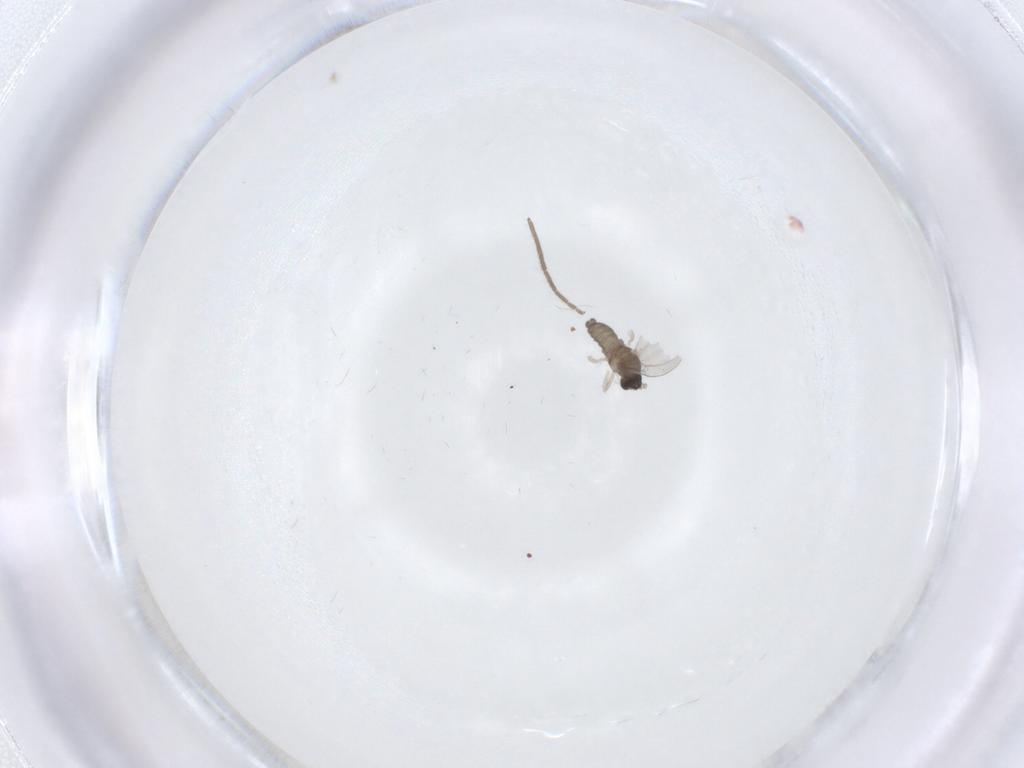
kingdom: Animalia
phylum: Arthropoda
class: Insecta
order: Diptera
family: Chironomidae
